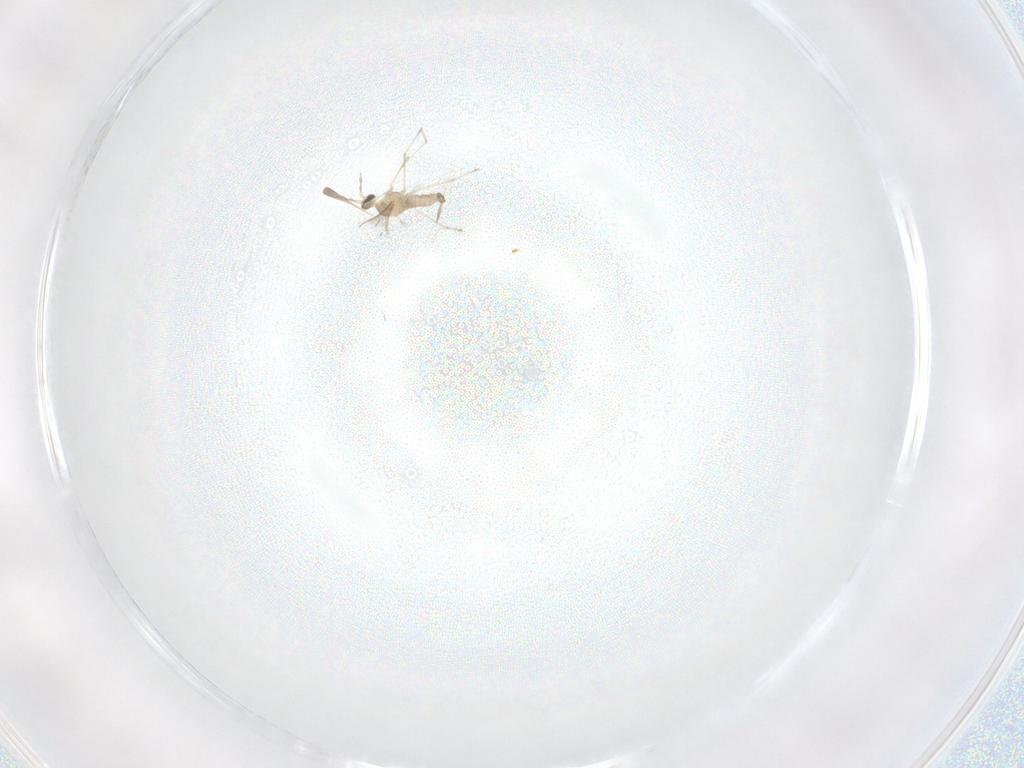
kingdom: Animalia
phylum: Arthropoda
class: Insecta
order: Diptera
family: Cecidomyiidae
